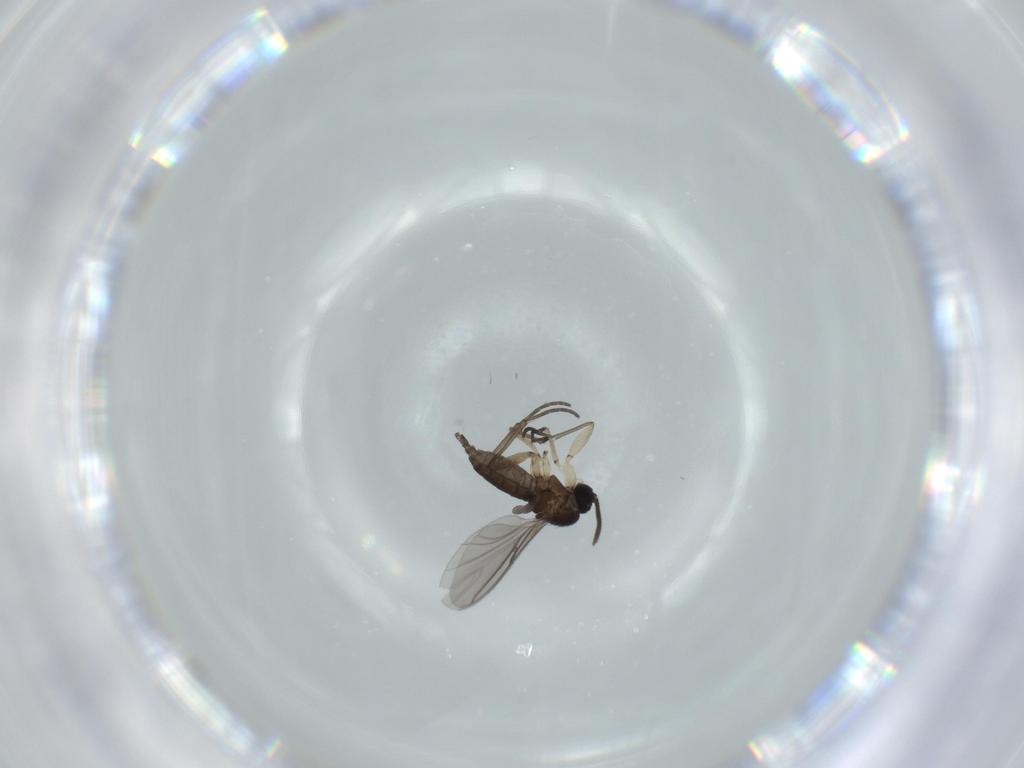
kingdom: Animalia
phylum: Arthropoda
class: Insecta
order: Diptera
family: Sciaridae
